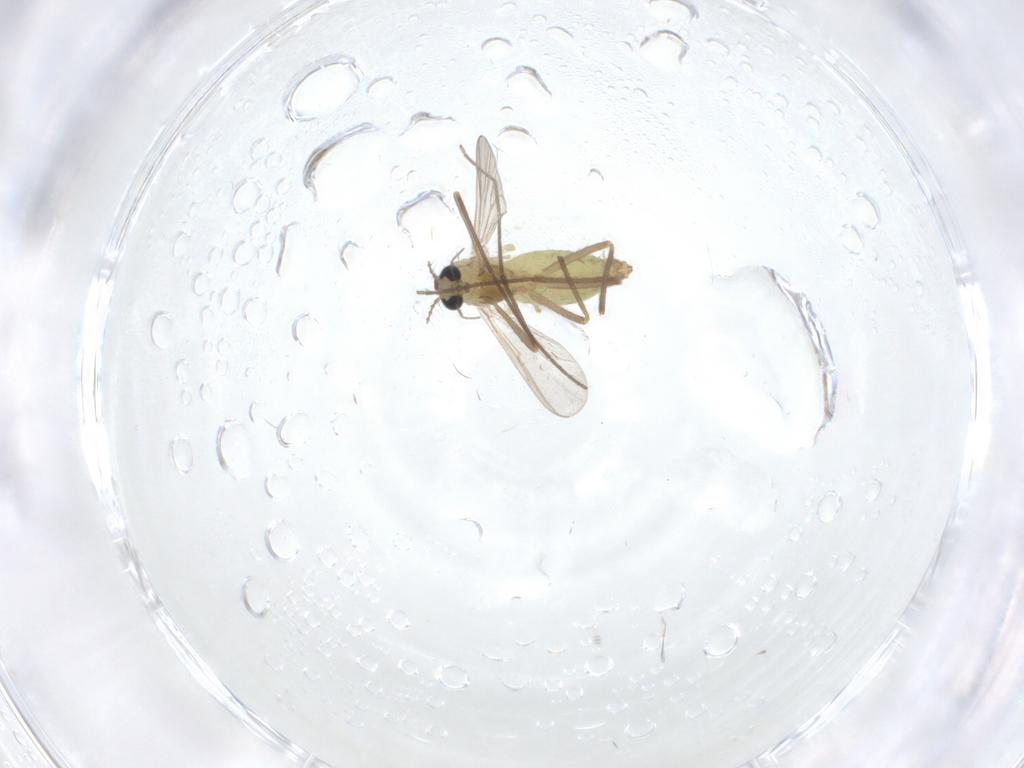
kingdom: Animalia
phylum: Arthropoda
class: Insecta
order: Diptera
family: Chironomidae
